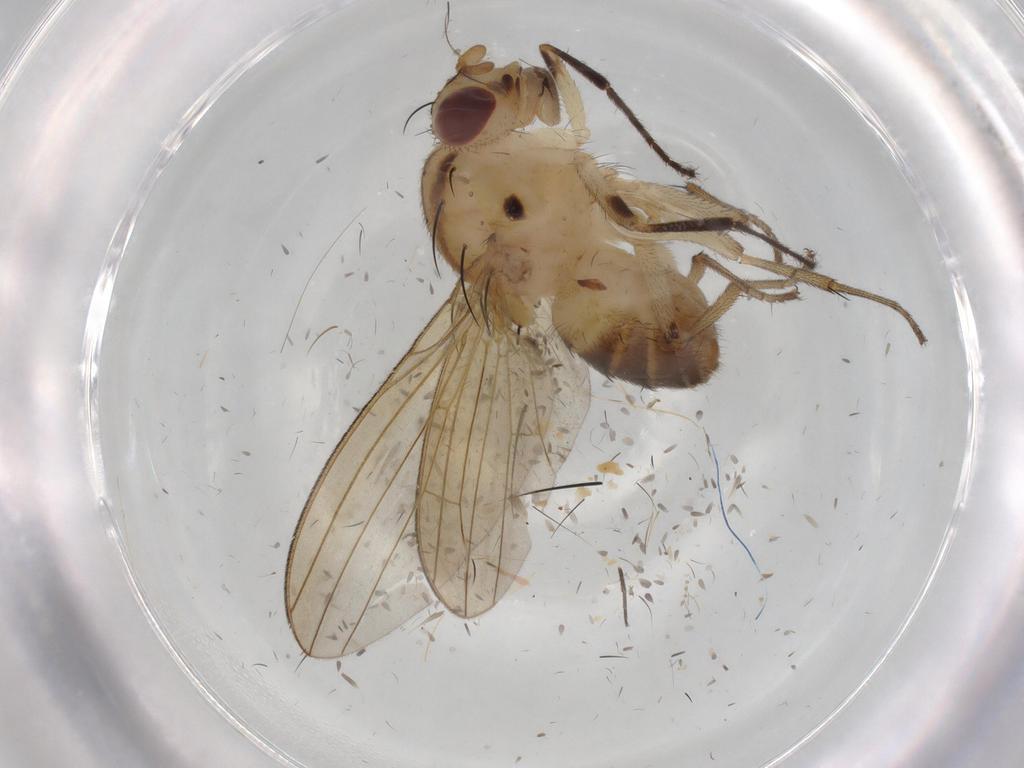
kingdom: Animalia
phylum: Arthropoda
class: Insecta
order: Diptera
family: Lauxaniidae
